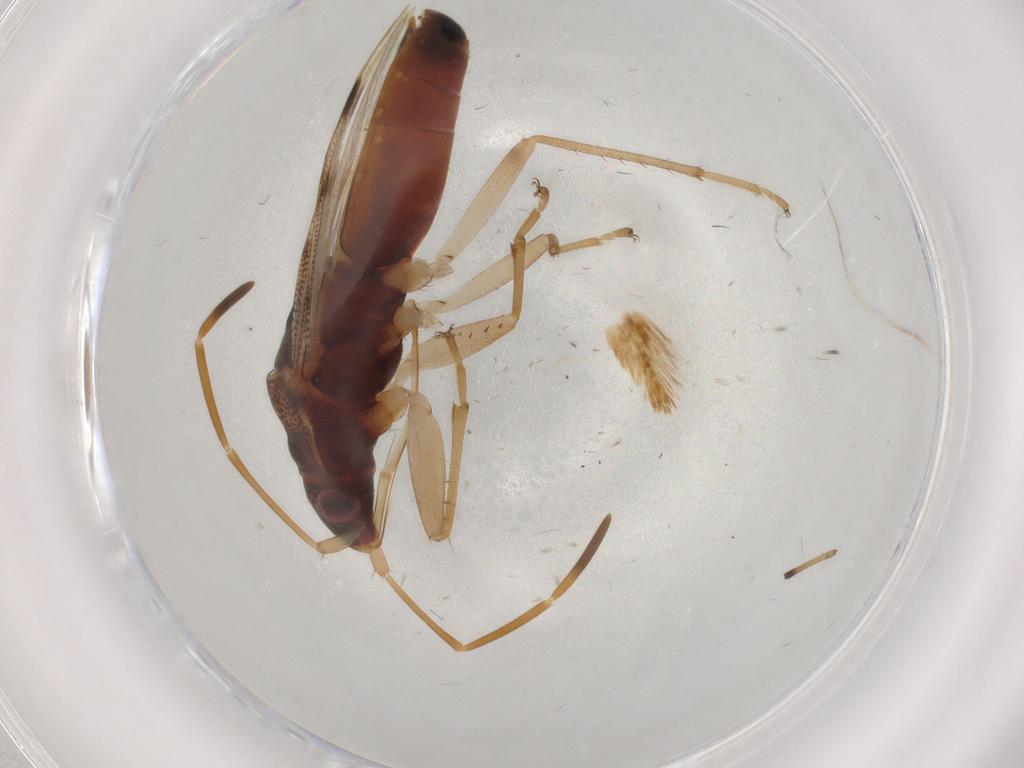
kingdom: Animalia
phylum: Arthropoda
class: Insecta
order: Hemiptera
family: Rhyparochromidae
